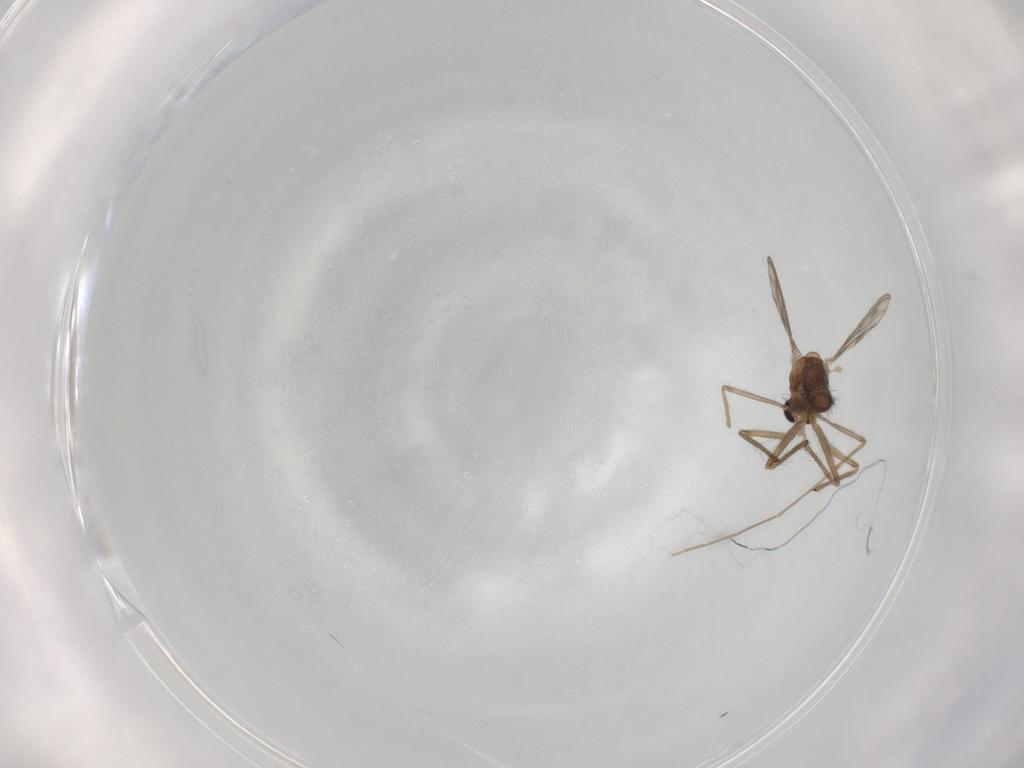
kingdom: Animalia
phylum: Arthropoda
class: Insecta
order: Diptera
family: Chironomidae
